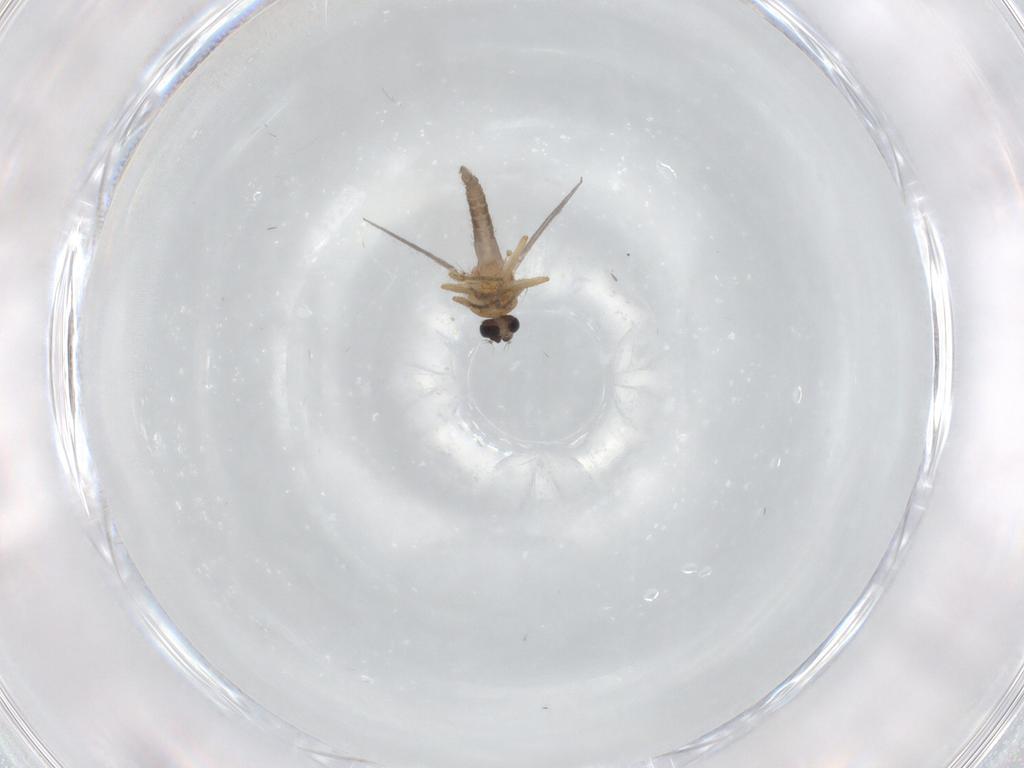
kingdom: Animalia
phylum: Arthropoda
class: Insecta
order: Diptera
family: Ceratopogonidae
